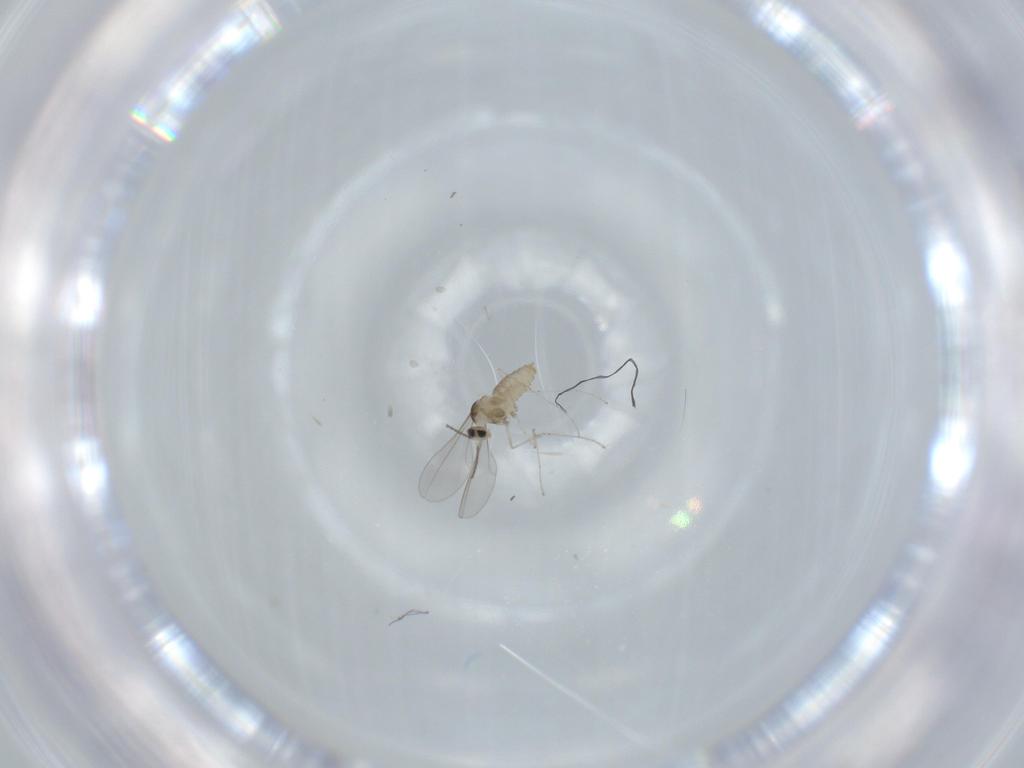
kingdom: Animalia
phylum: Arthropoda
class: Insecta
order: Diptera
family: Cecidomyiidae
